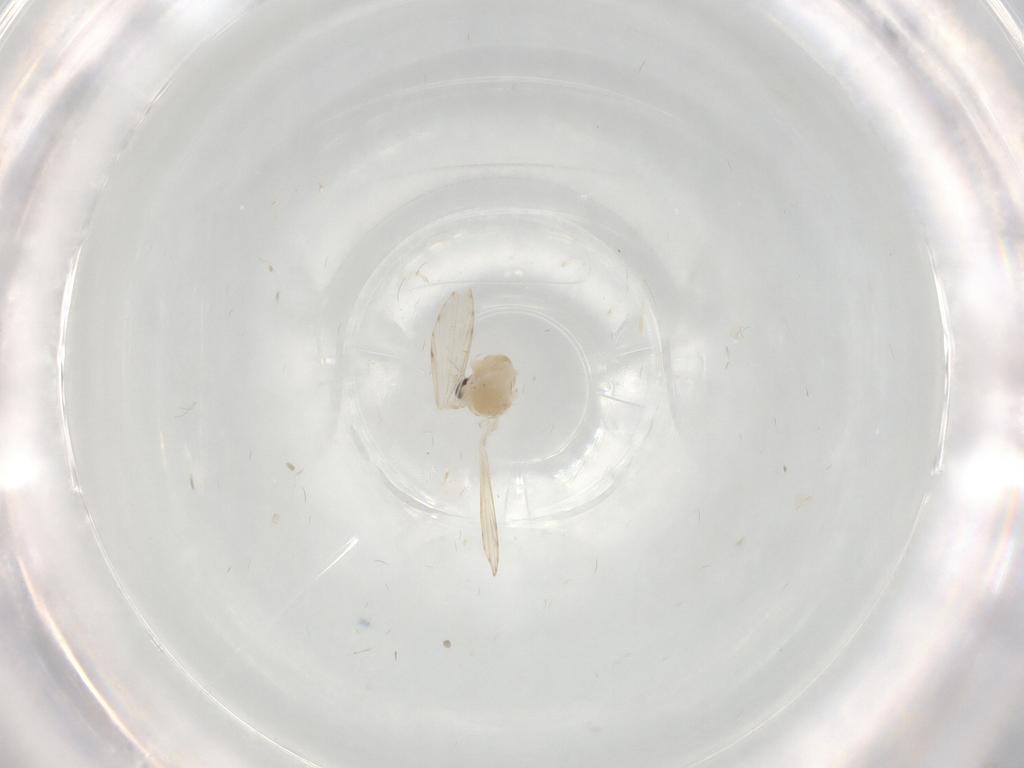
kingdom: Animalia
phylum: Arthropoda
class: Insecta
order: Diptera
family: Psychodidae
